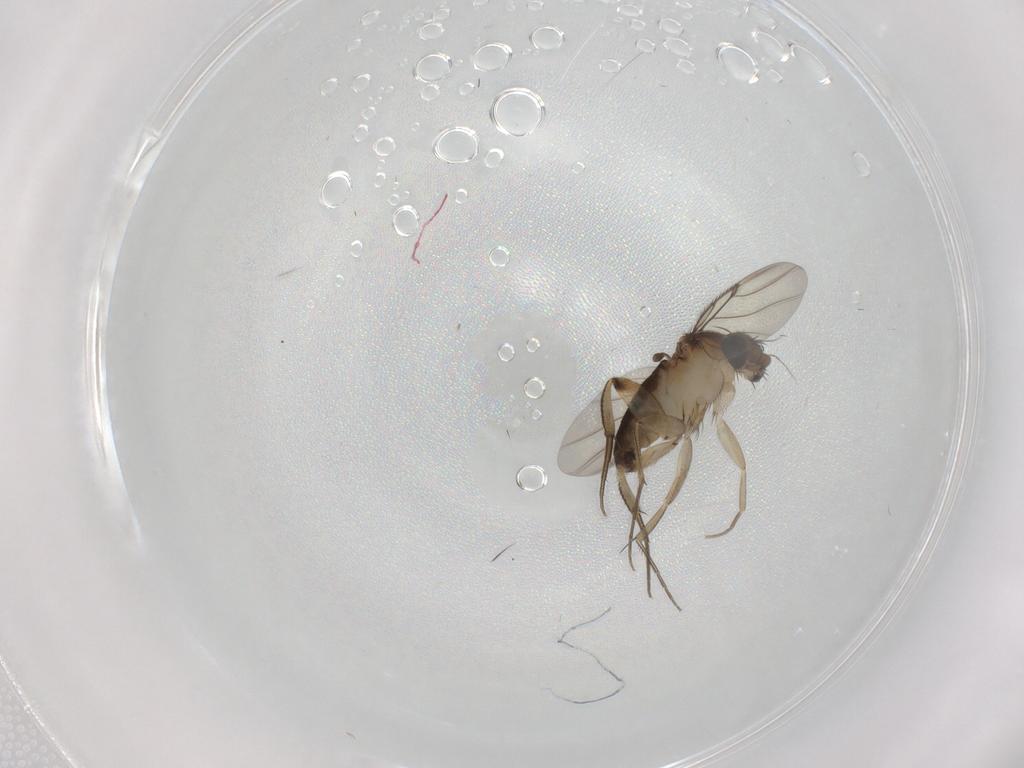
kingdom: Animalia
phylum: Arthropoda
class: Insecta
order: Diptera
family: Phoridae
